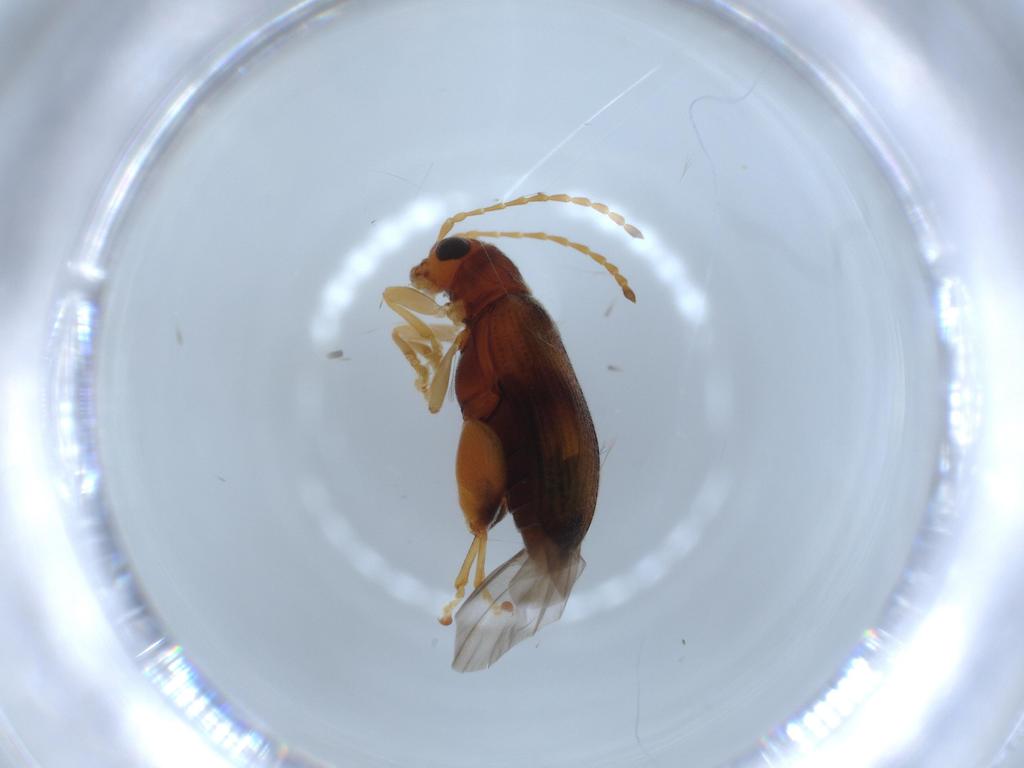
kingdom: Animalia
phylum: Arthropoda
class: Insecta
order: Coleoptera
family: Chrysomelidae
